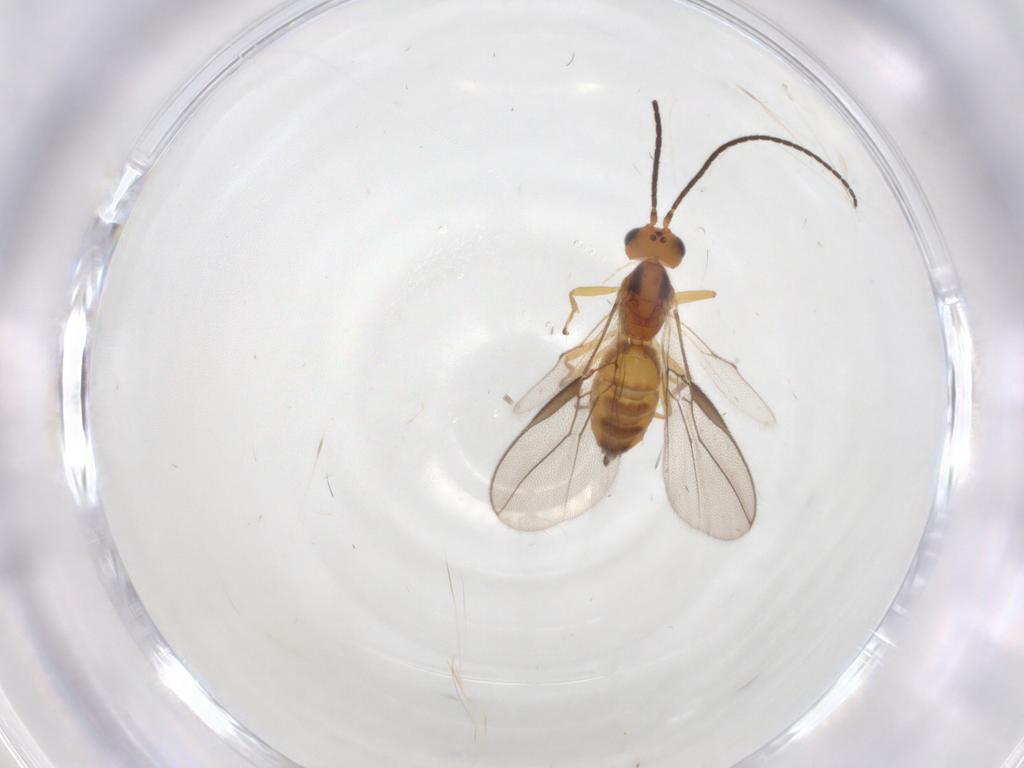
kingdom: Animalia
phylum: Arthropoda
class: Insecta
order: Hymenoptera
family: Braconidae
